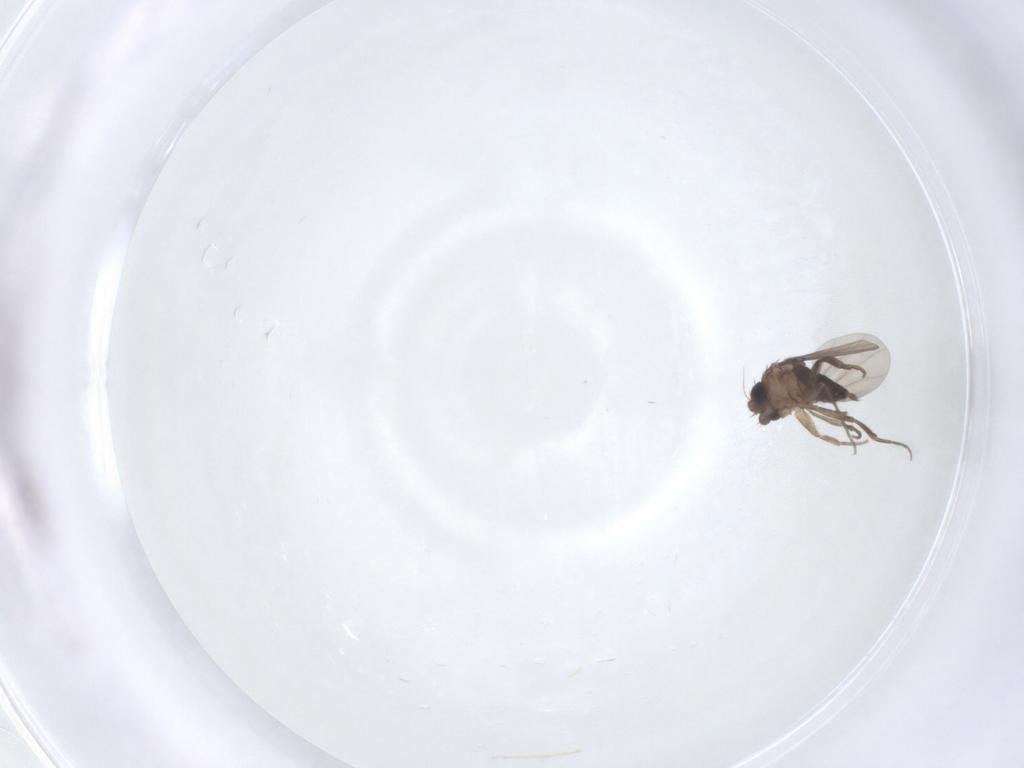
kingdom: Animalia
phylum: Arthropoda
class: Insecta
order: Diptera
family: Phoridae
